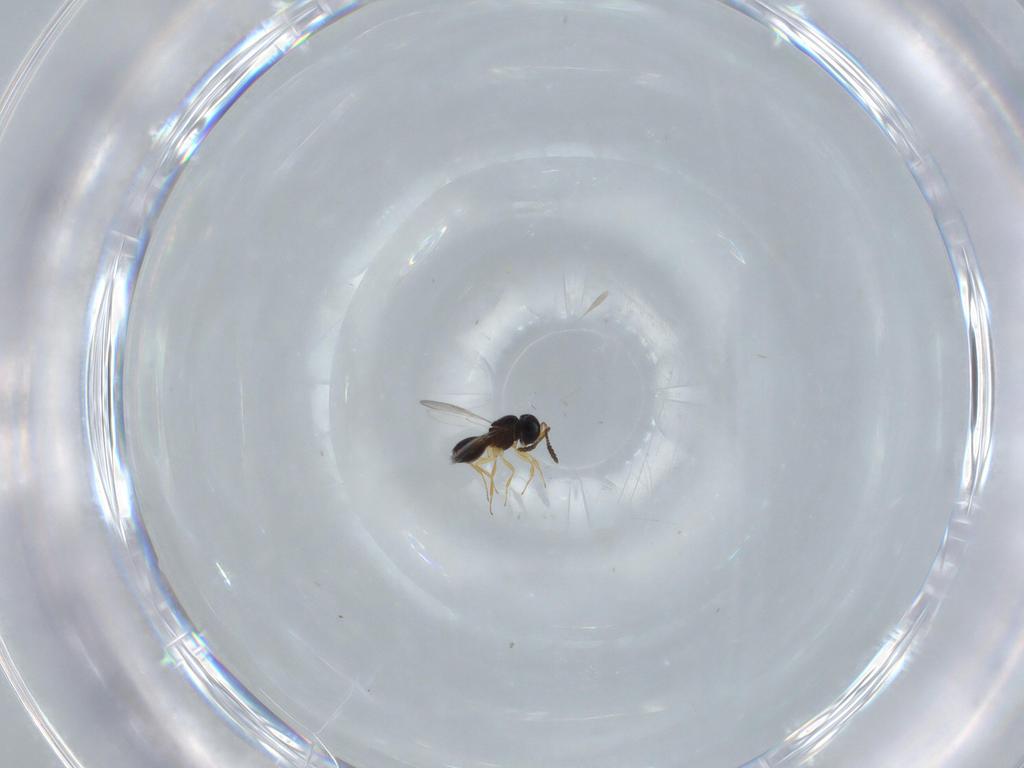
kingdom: Animalia
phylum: Arthropoda
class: Insecta
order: Hymenoptera
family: Scelionidae
